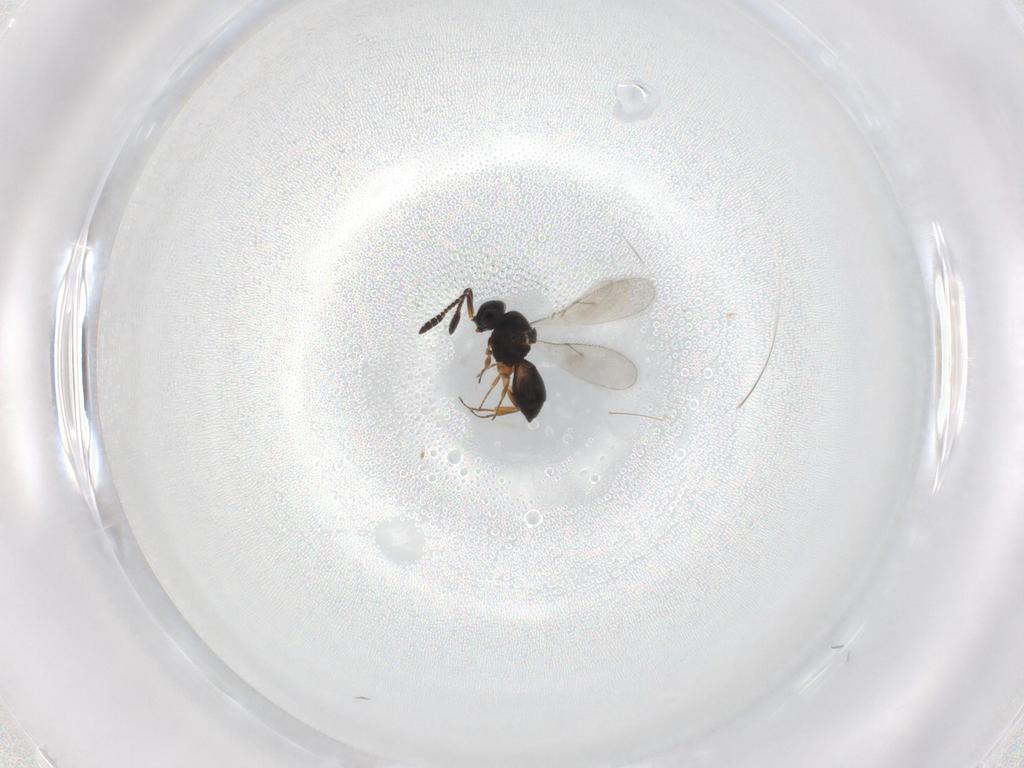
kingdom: Animalia
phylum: Arthropoda
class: Insecta
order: Hymenoptera
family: Scelionidae
